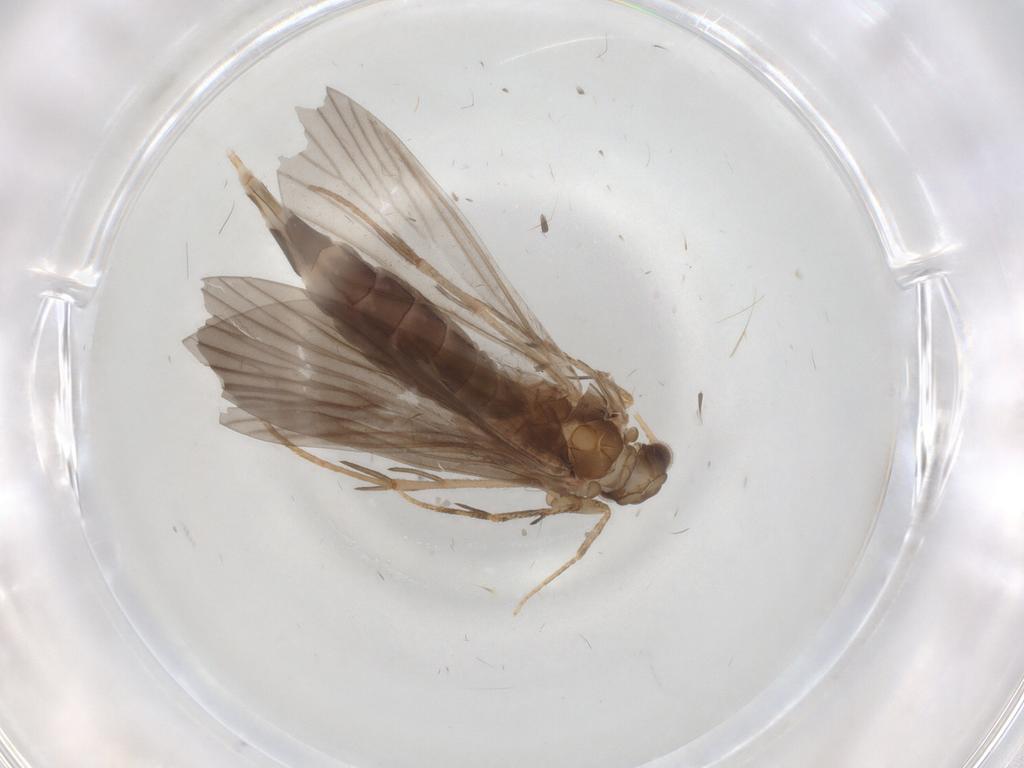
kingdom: Animalia
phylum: Arthropoda
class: Insecta
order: Trichoptera
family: Philopotamidae
